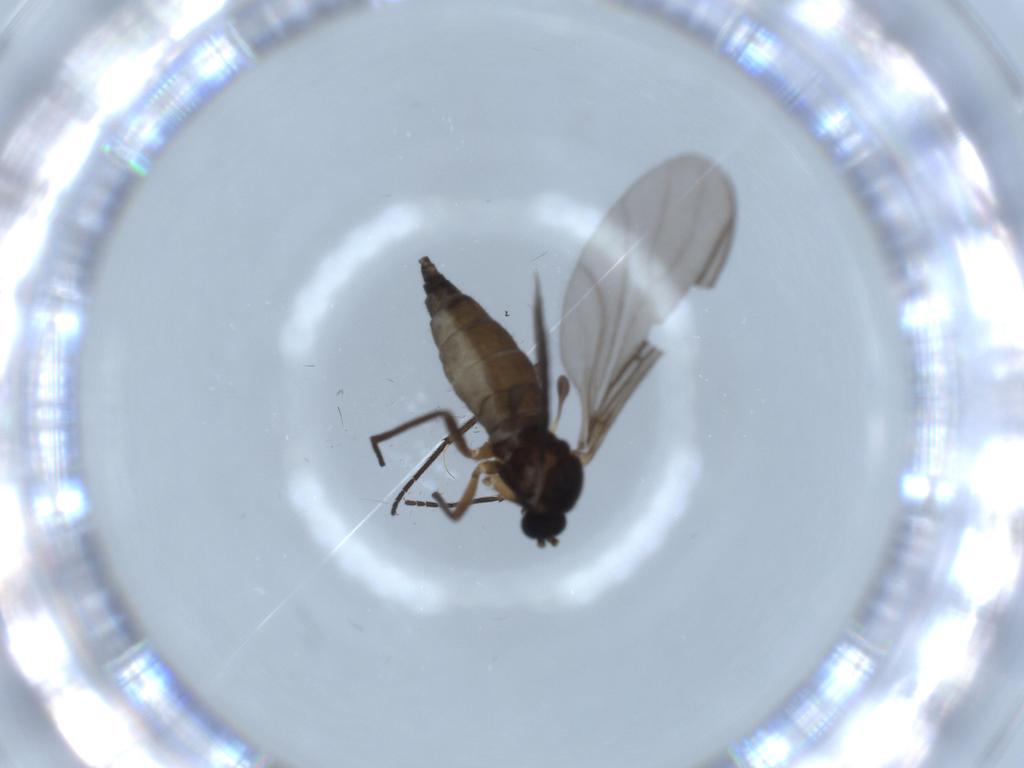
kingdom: Animalia
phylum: Arthropoda
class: Insecta
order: Diptera
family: Sciaridae
